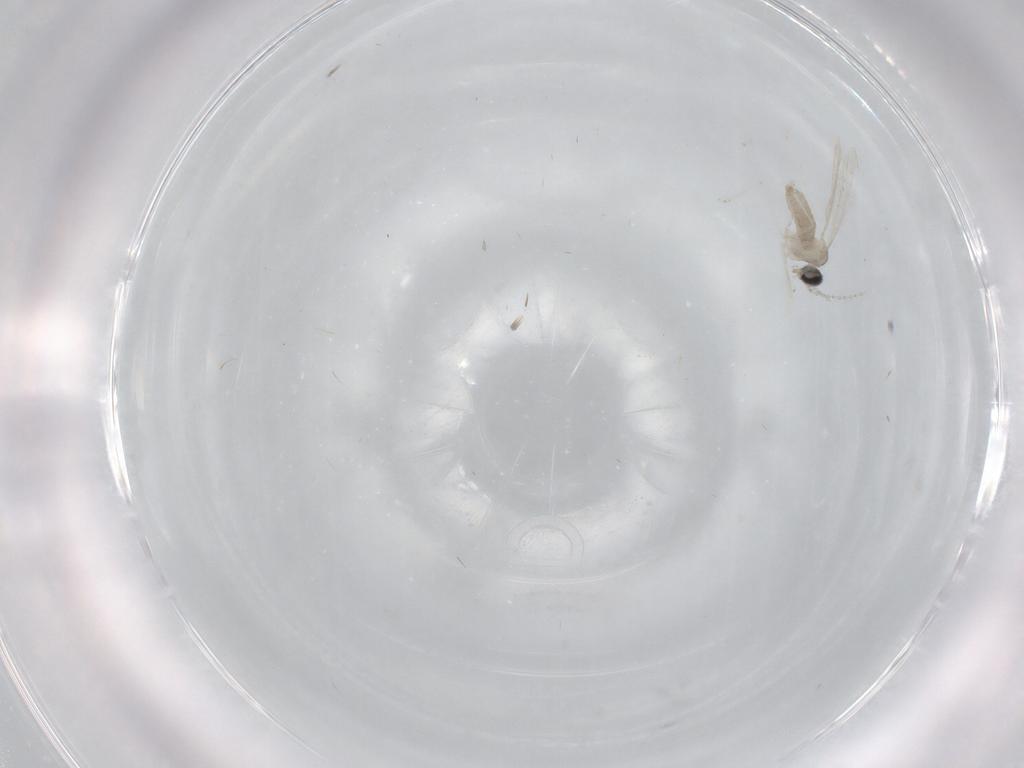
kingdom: Animalia
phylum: Arthropoda
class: Insecta
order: Diptera
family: Cecidomyiidae
